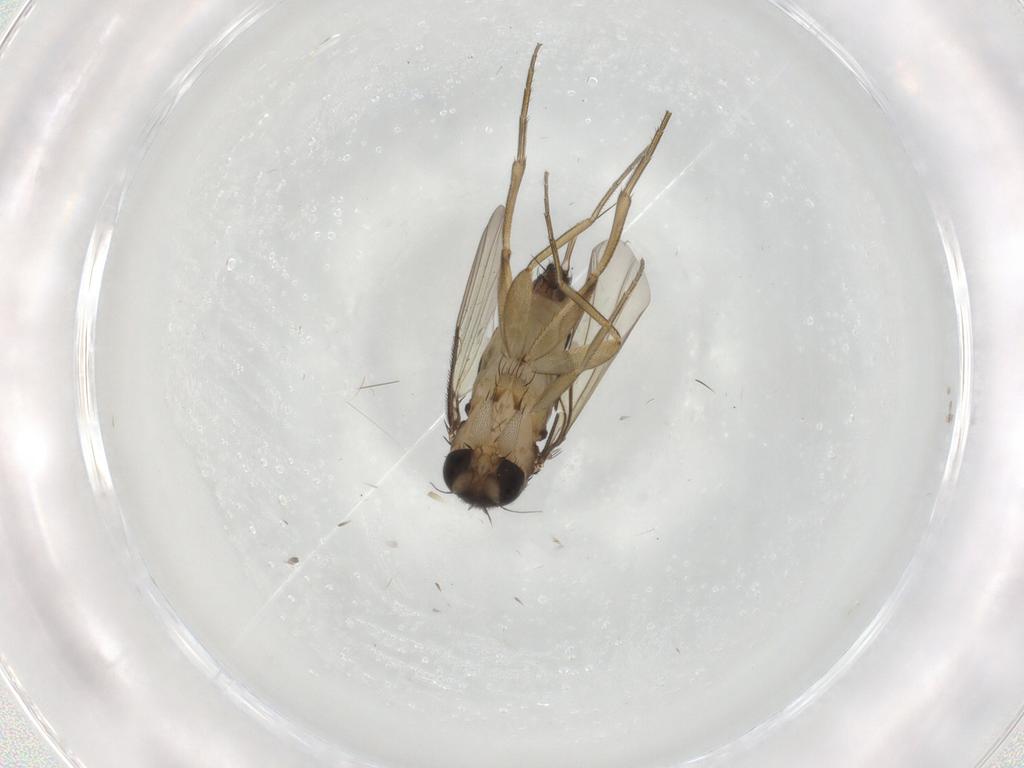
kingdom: Animalia
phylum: Arthropoda
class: Insecta
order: Diptera
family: Phoridae
